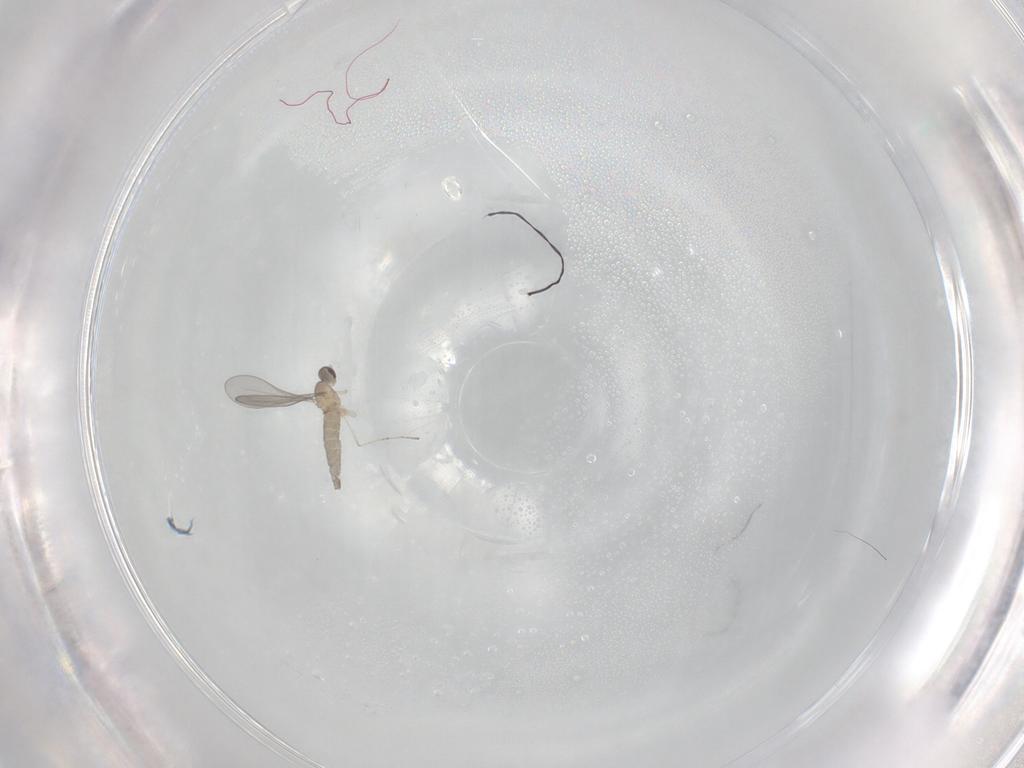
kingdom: Animalia
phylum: Arthropoda
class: Insecta
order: Diptera
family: Cecidomyiidae
